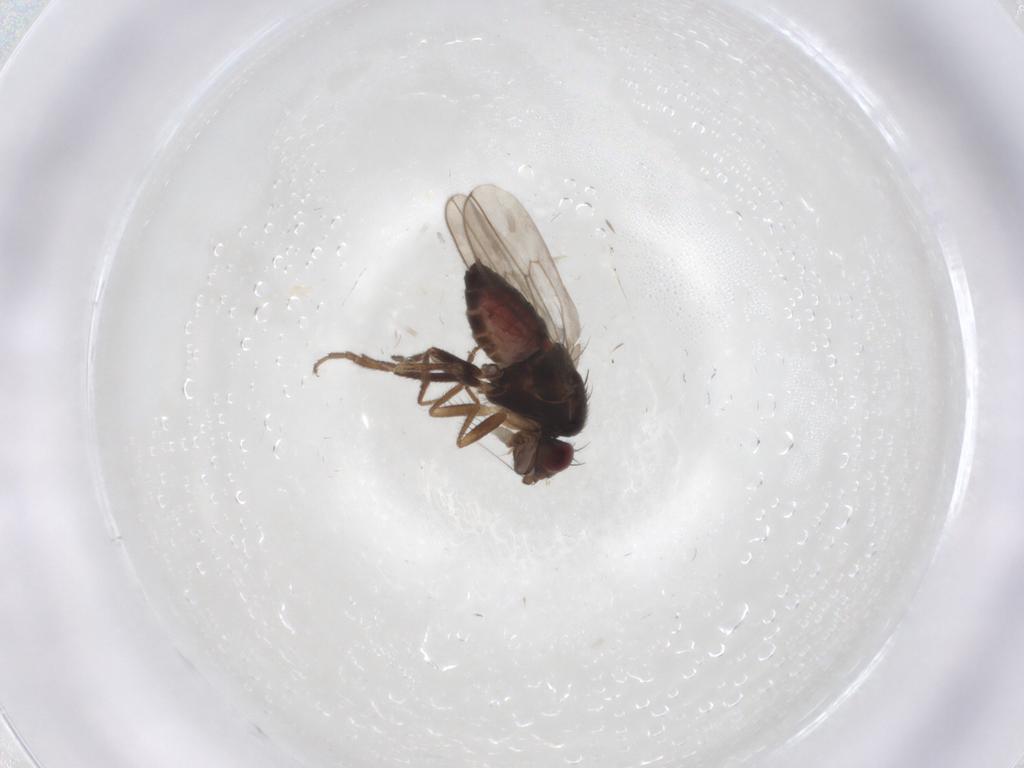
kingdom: Animalia
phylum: Arthropoda
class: Insecta
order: Diptera
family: Sphaeroceridae
